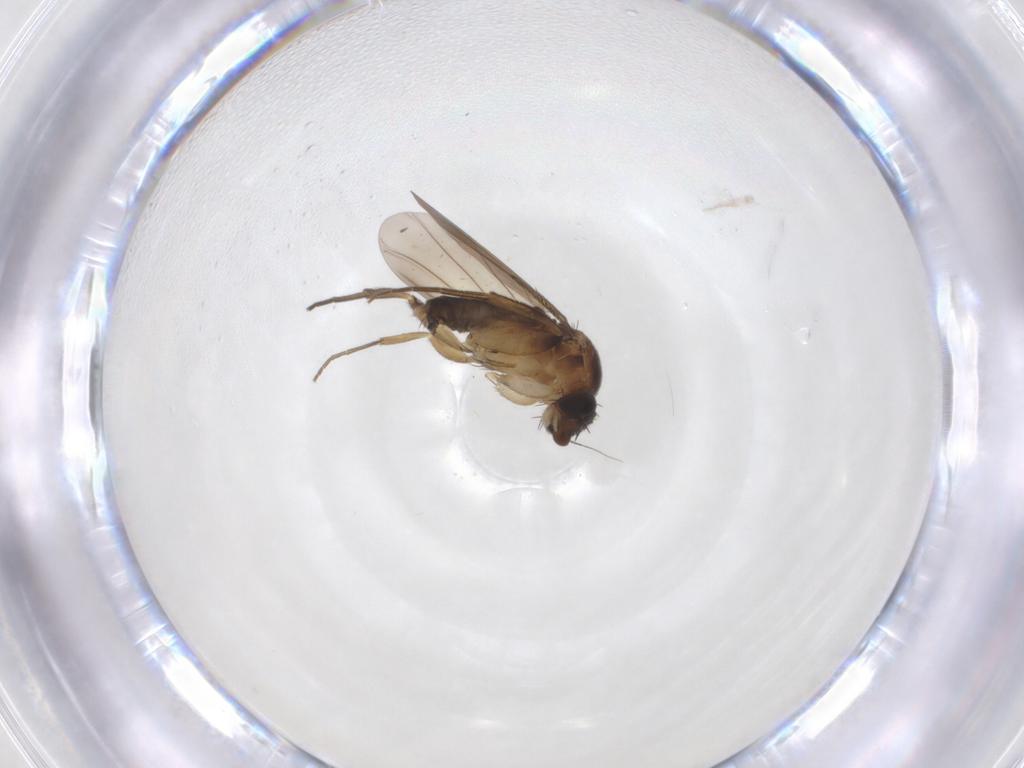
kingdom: Animalia
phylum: Arthropoda
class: Insecta
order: Diptera
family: Phoridae
